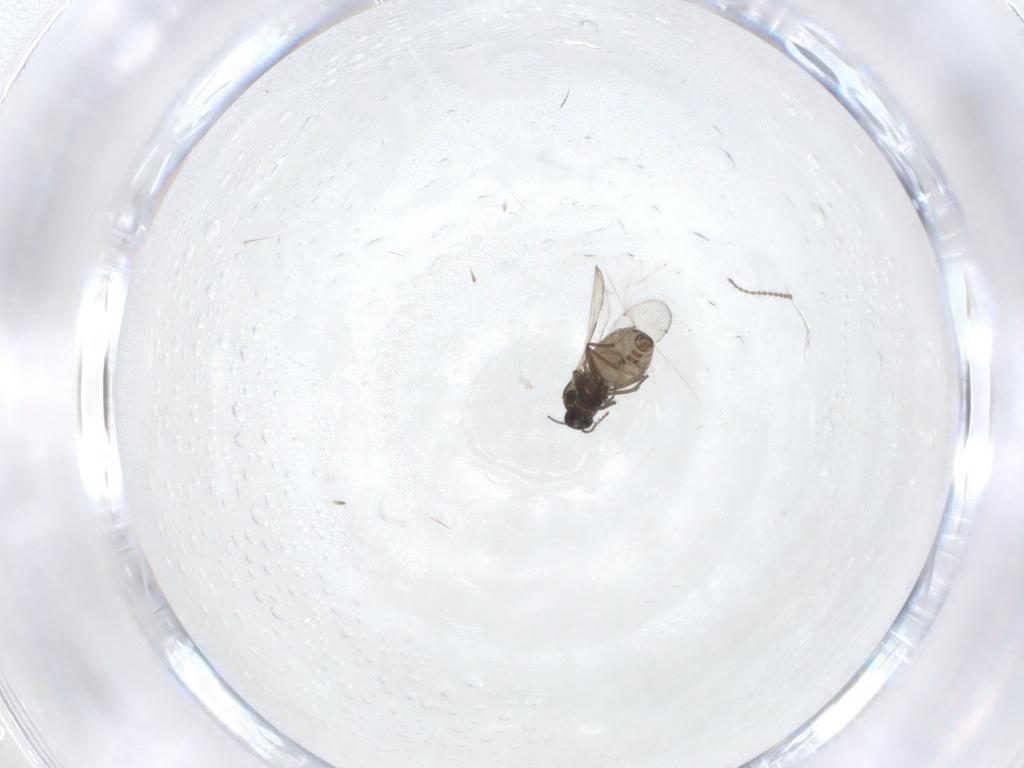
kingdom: Animalia
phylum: Arthropoda
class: Insecta
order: Diptera
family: Ceratopogonidae
